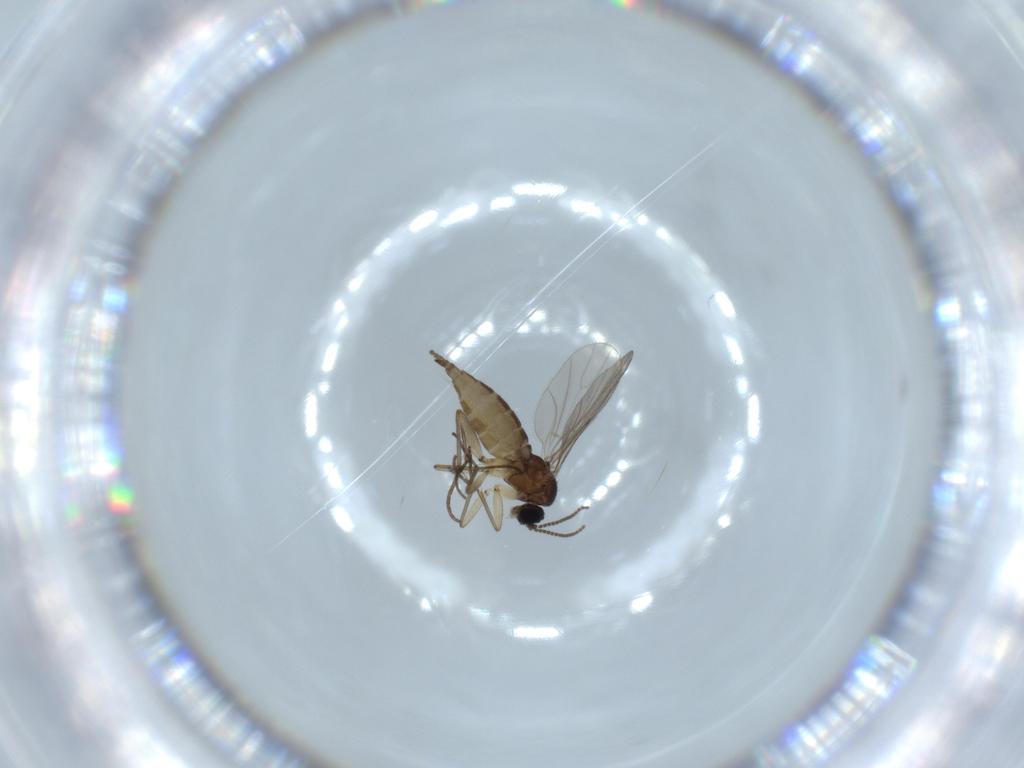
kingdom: Animalia
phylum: Arthropoda
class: Insecta
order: Diptera
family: Sciaridae
